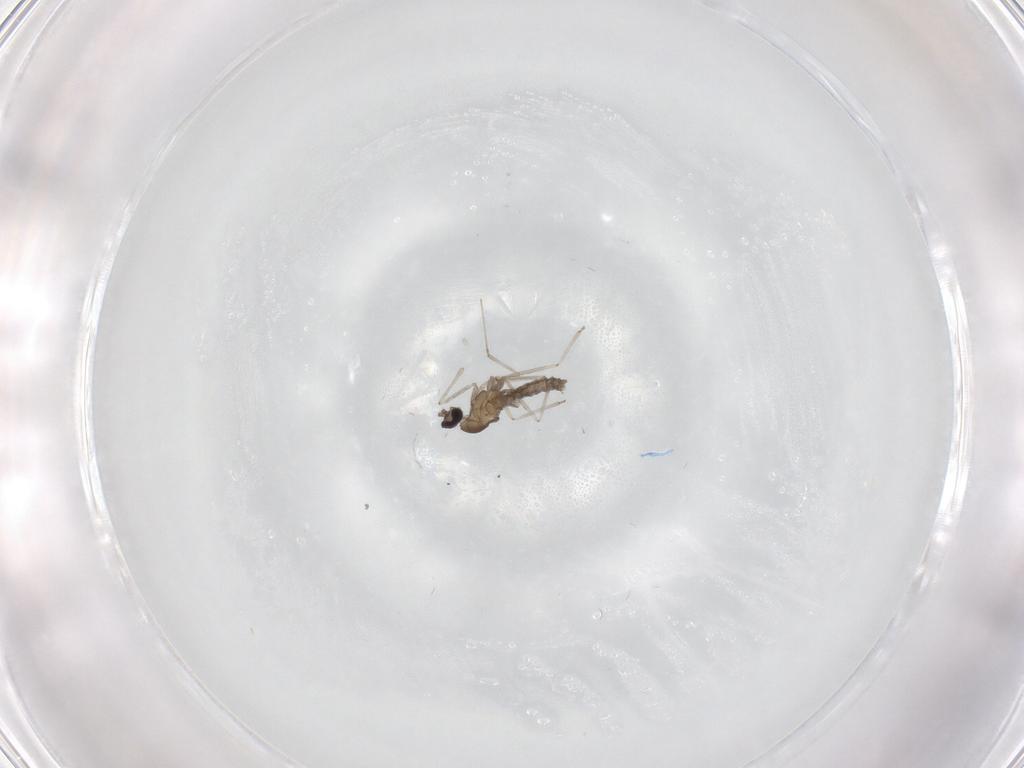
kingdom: Animalia
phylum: Arthropoda
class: Insecta
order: Diptera
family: Cecidomyiidae
